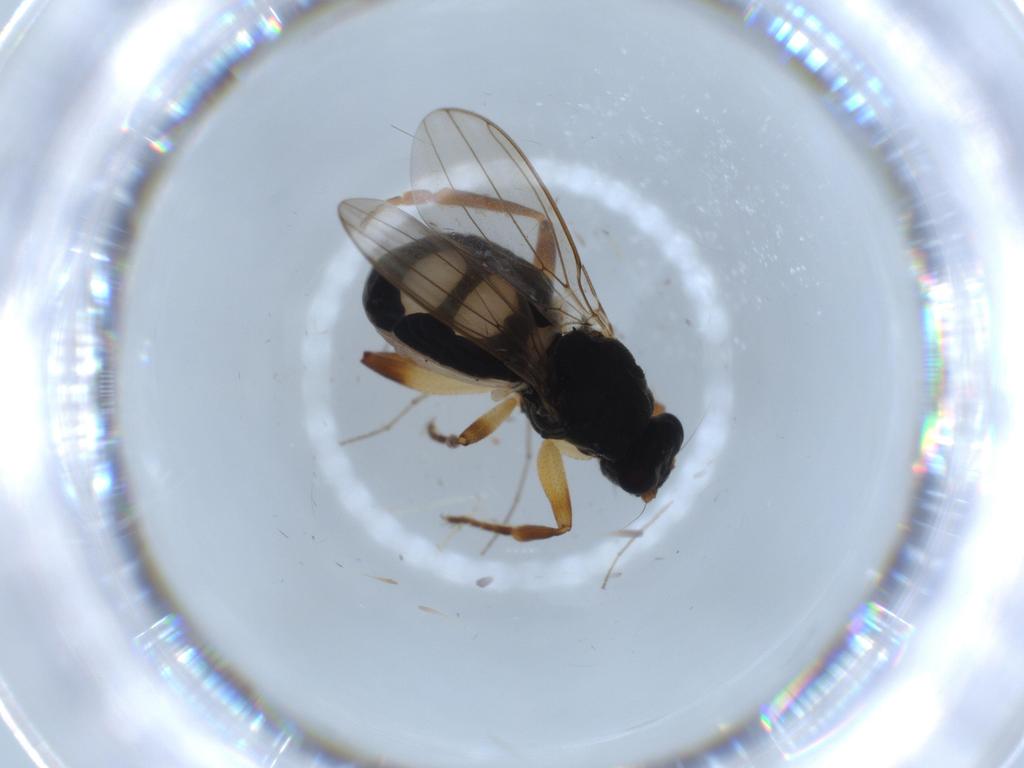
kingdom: Animalia
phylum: Arthropoda
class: Insecta
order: Diptera
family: Sphaeroceridae
